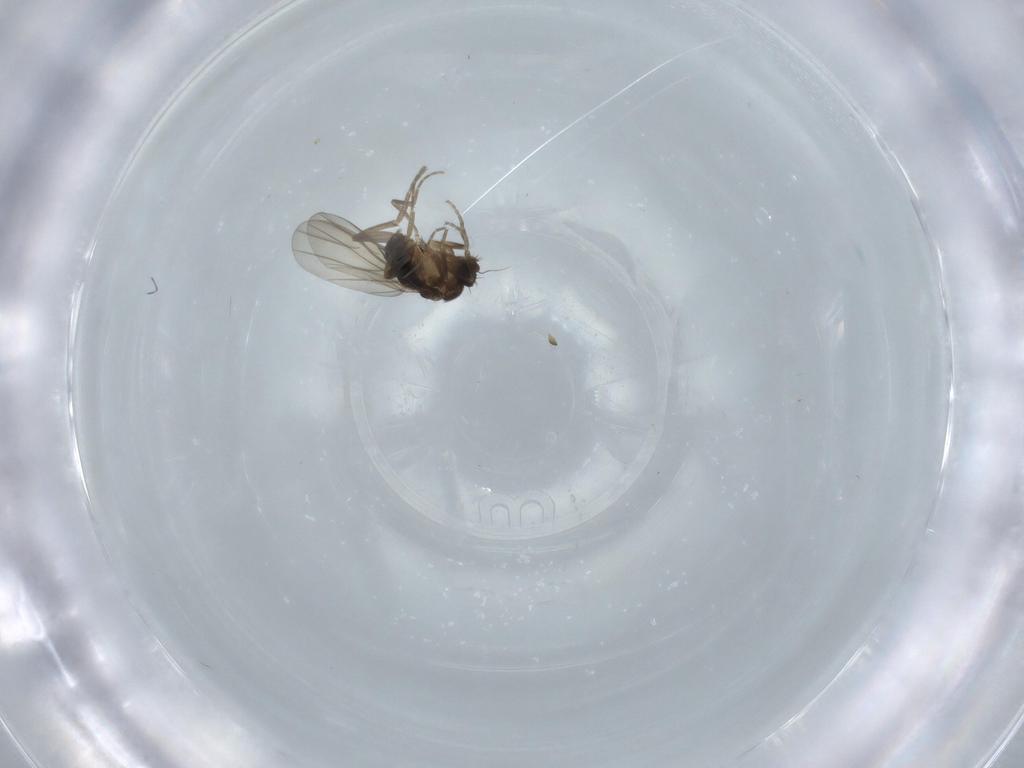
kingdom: Animalia
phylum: Arthropoda
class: Insecta
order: Diptera
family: Phoridae
